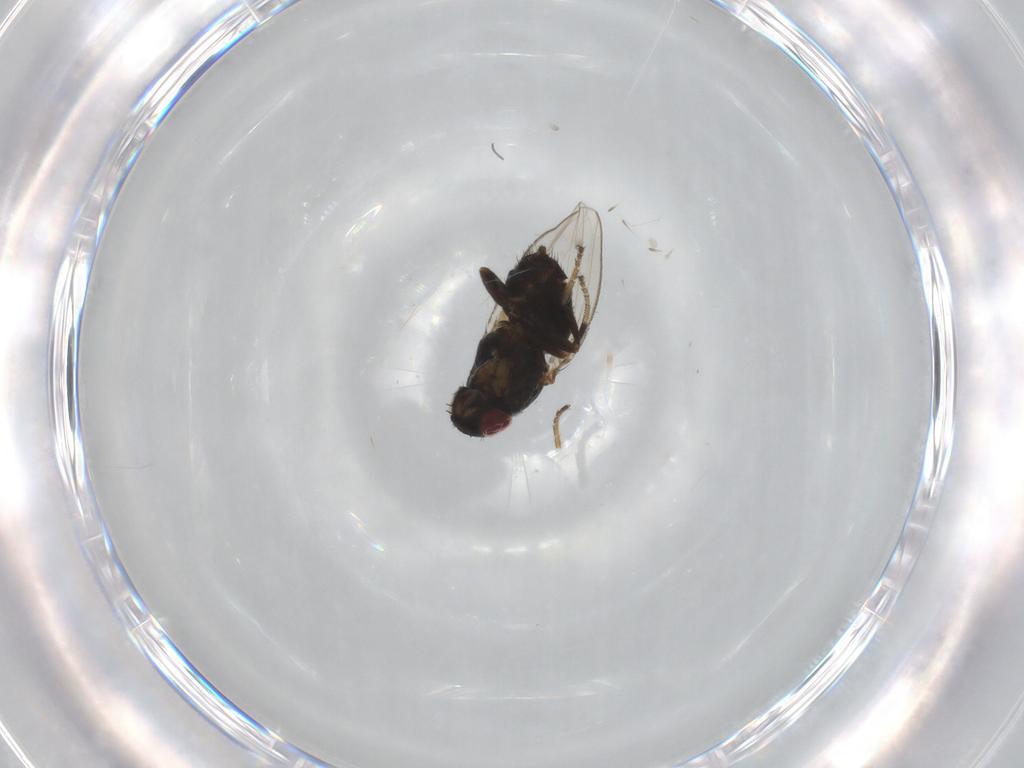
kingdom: Animalia
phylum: Arthropoda
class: Insecta
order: Diptera
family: Milichiidae
